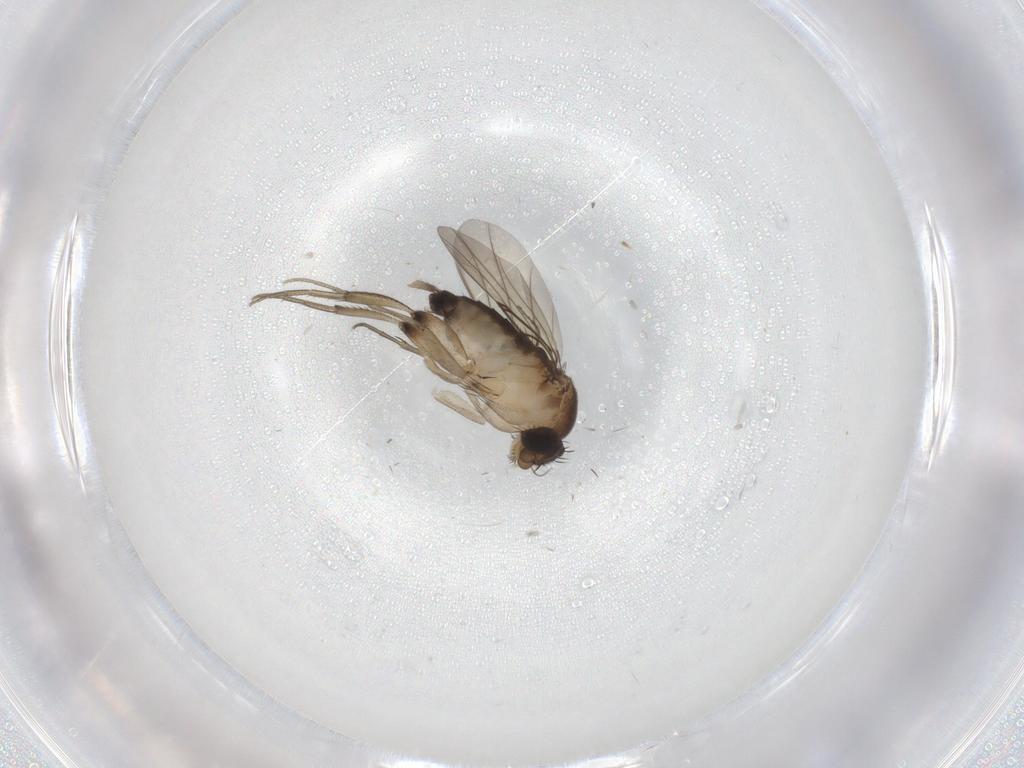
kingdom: Animalia
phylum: Arthropoda
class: Insecta
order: Diptera
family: Phoridae
